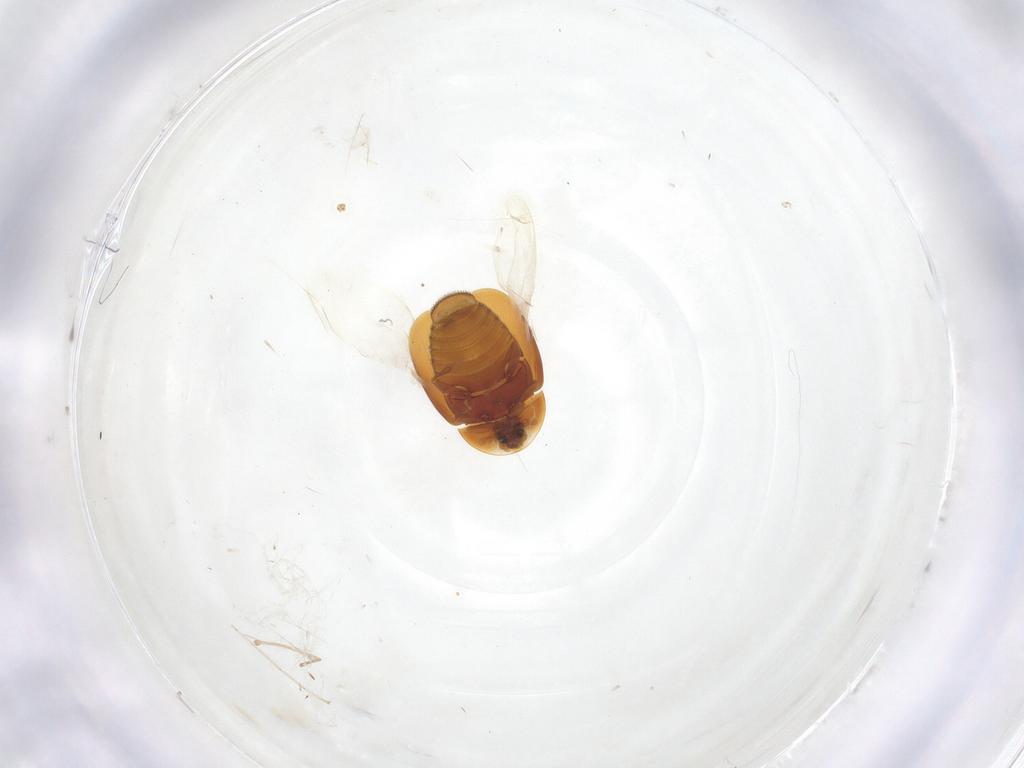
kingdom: Animalia
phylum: Arthropoda
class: Insecta
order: Coleoptera
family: Corylophidae
